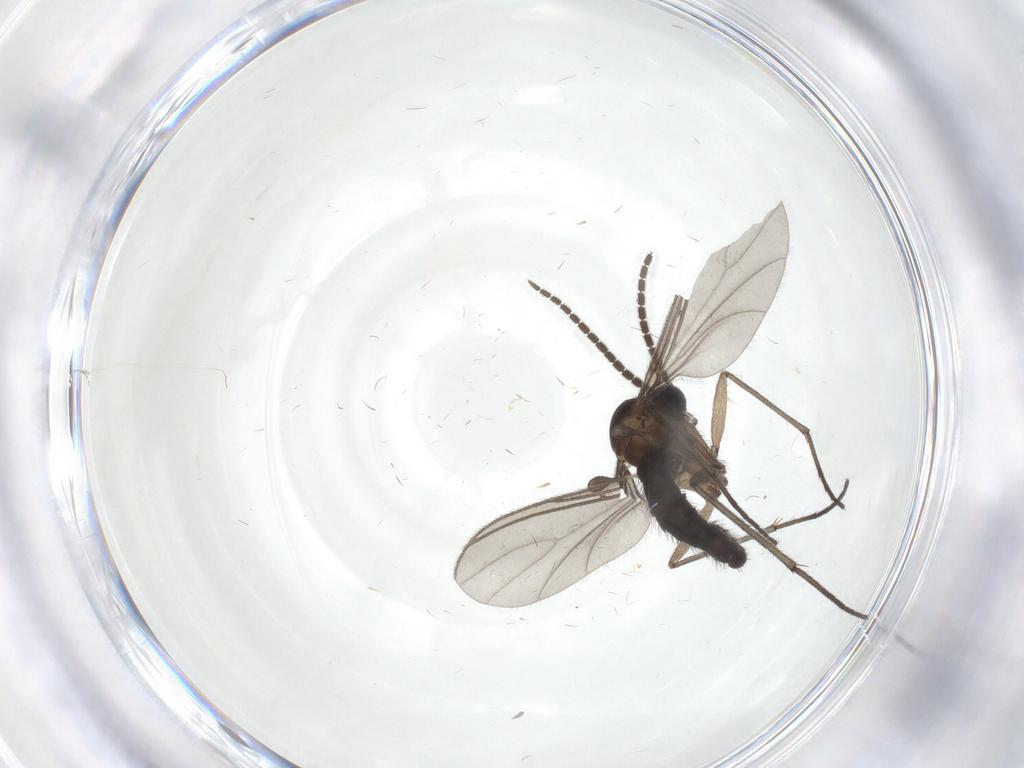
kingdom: Animalia
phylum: Arthropoda
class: Insecta
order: Diptera
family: Sciaridae
